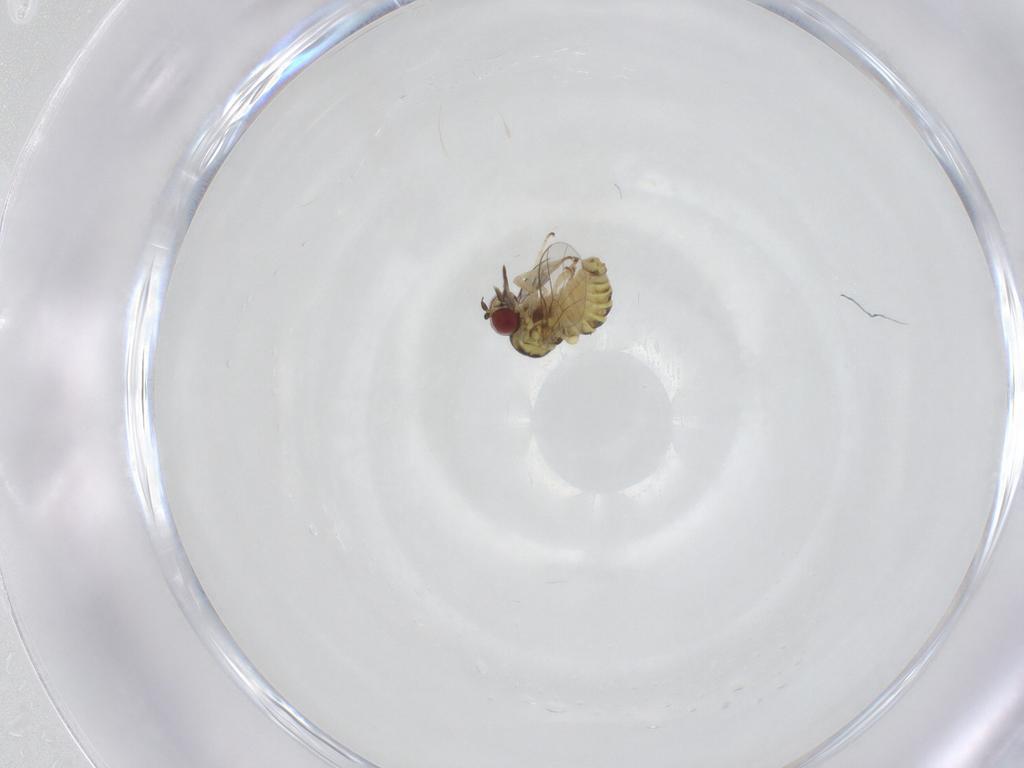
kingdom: Animalia
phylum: Arthropoda
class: Insecta
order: Diptera
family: Mythicomyiidae
